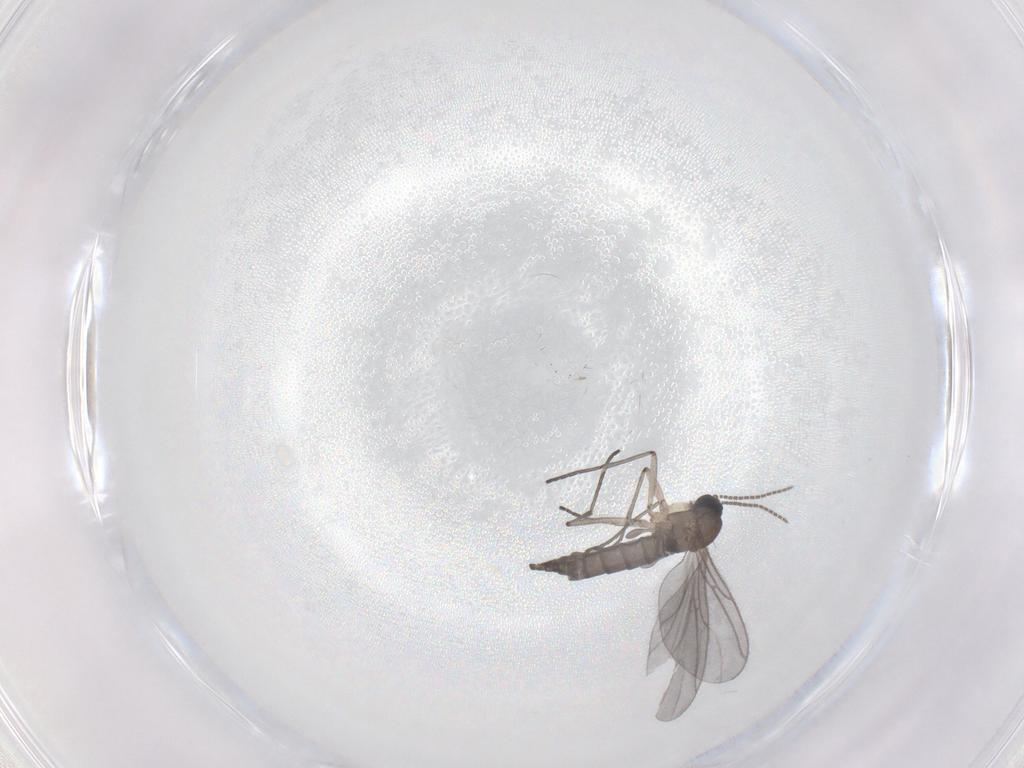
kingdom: Animalia
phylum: Arthropoda
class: Insecta
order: Diptera
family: Sciaridae
